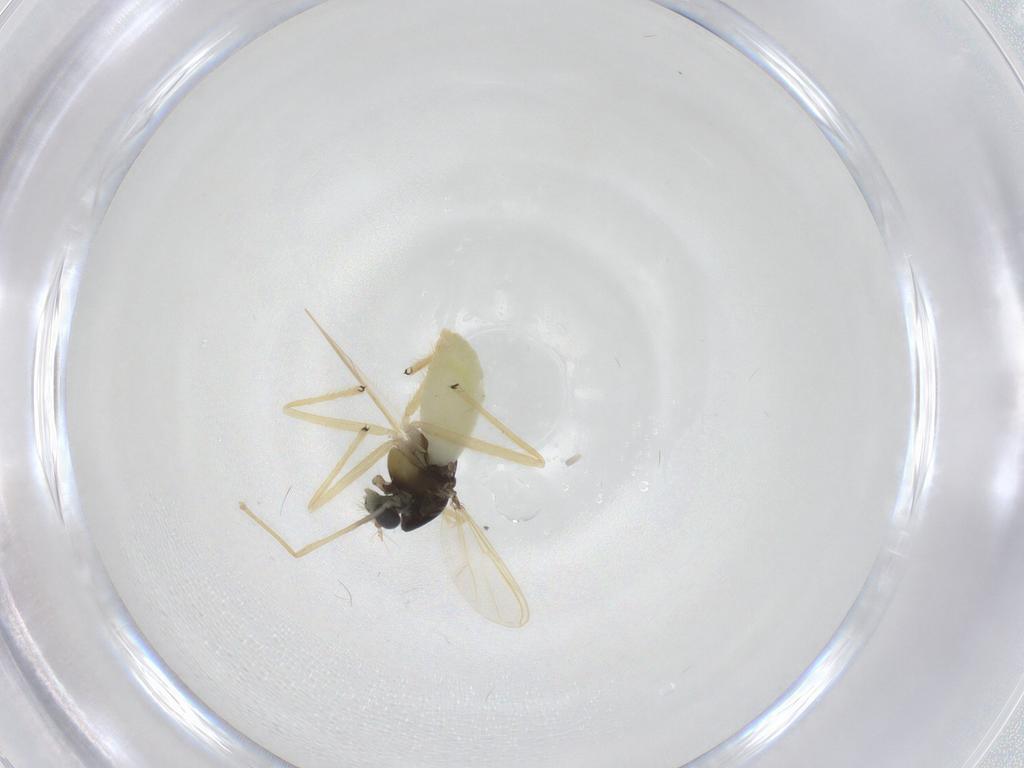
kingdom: Animalia
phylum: Arthropoda
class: Insecta
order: Diptera
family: Chironomidae
